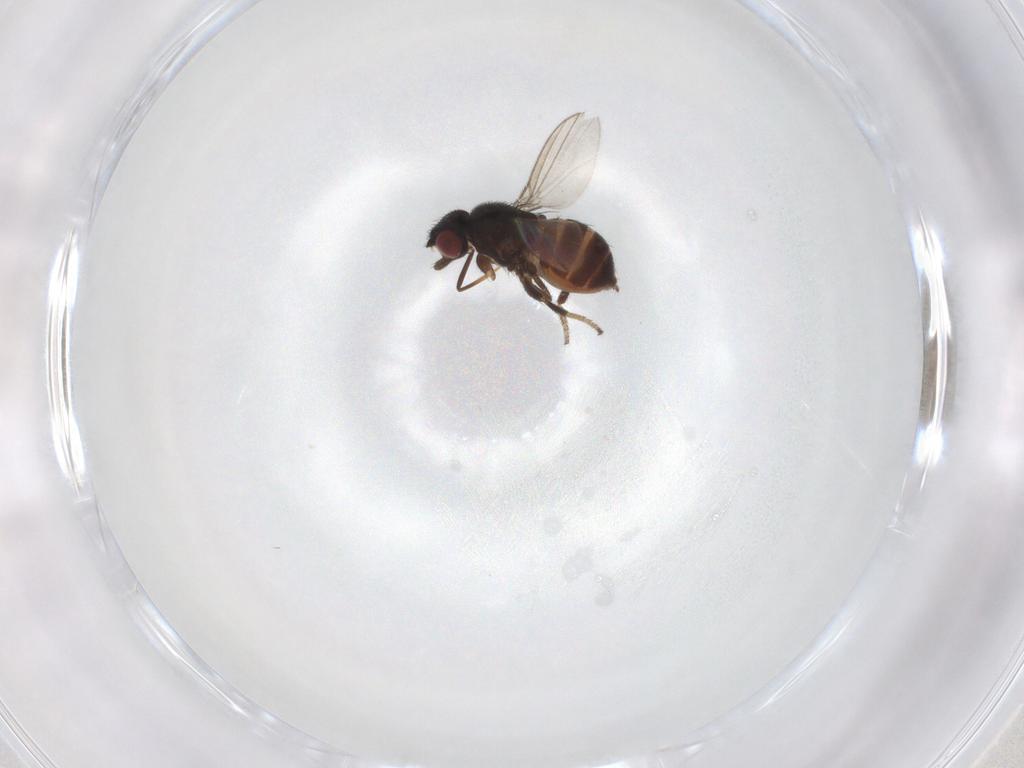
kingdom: Animalia
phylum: Arthropoda
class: Insecta
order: Diptera
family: Milichiidae
